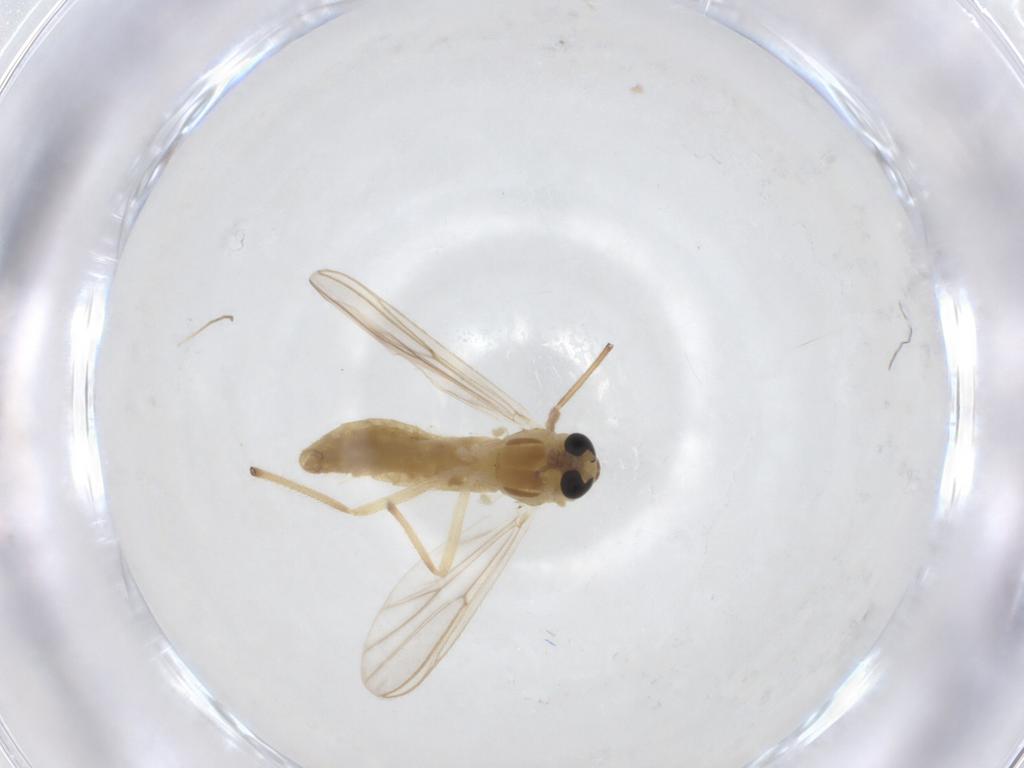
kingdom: Animalia
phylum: Arthropoda
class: Insecta
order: Diptera
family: Chironomidae
